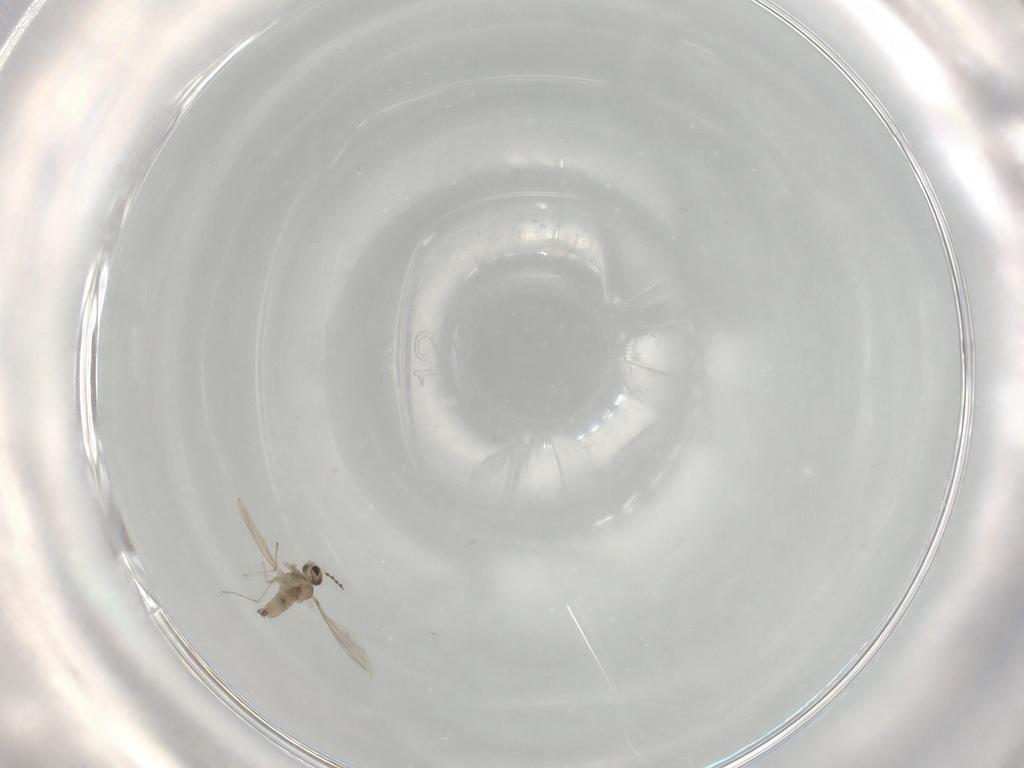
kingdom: Animalia
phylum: Arthropoda
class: Insecta
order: Diptera
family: Cecidomyiidae
